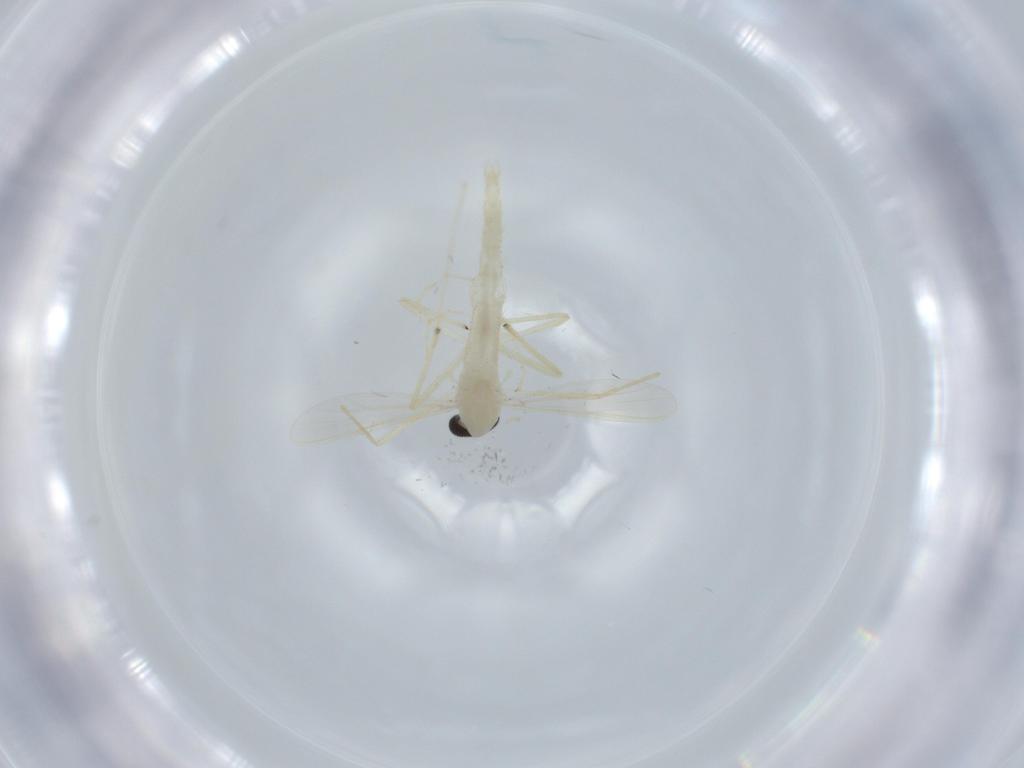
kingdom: Animalia
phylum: Arthropoda
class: Insecta
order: Diptera
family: Chironomidae
